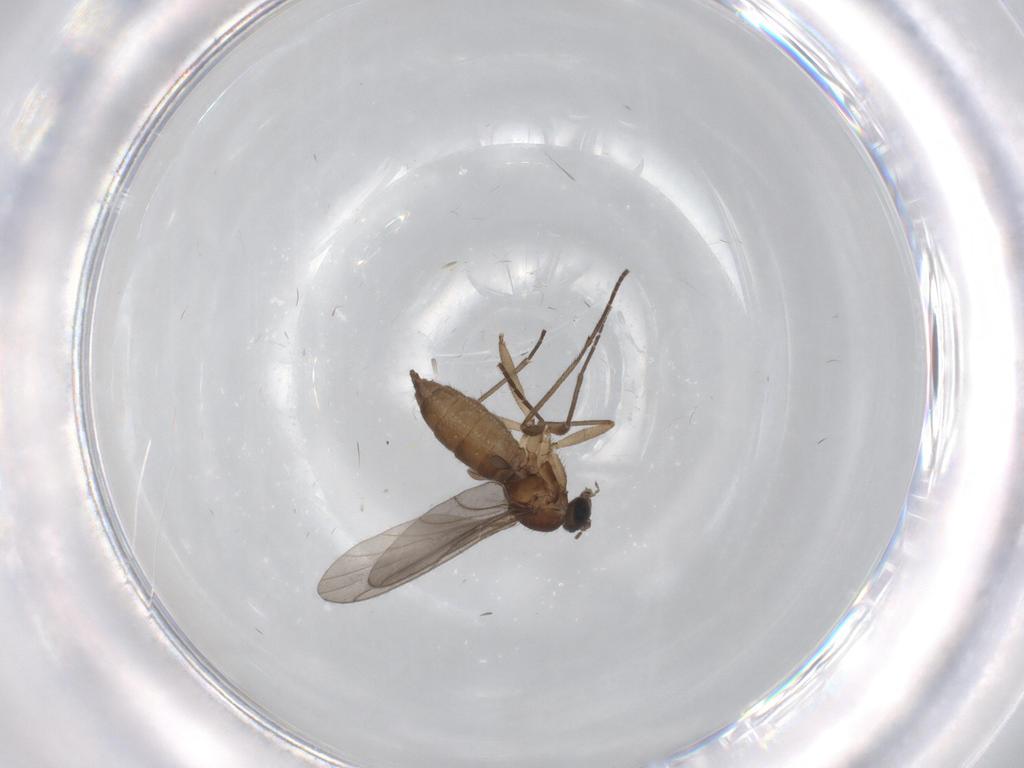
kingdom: Animalia
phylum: Arthropoda
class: Insecta
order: Diptera
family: Sciaridae
